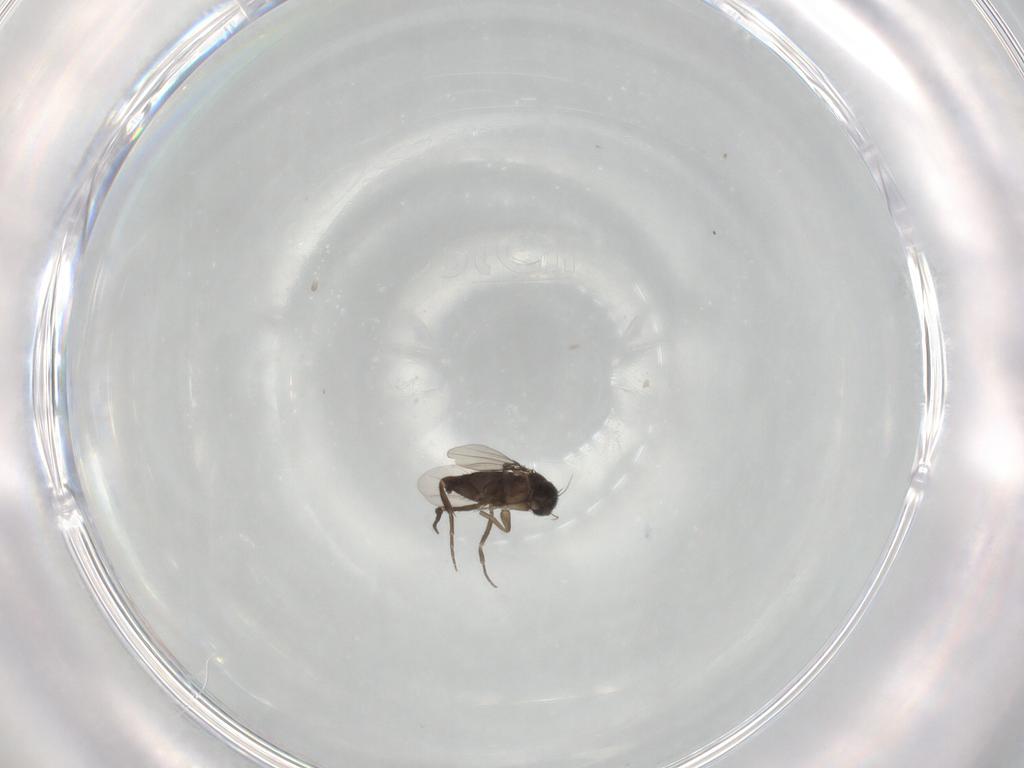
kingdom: Animalia
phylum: Arthropoda
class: Insecta
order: Diptera
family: Phoridae
